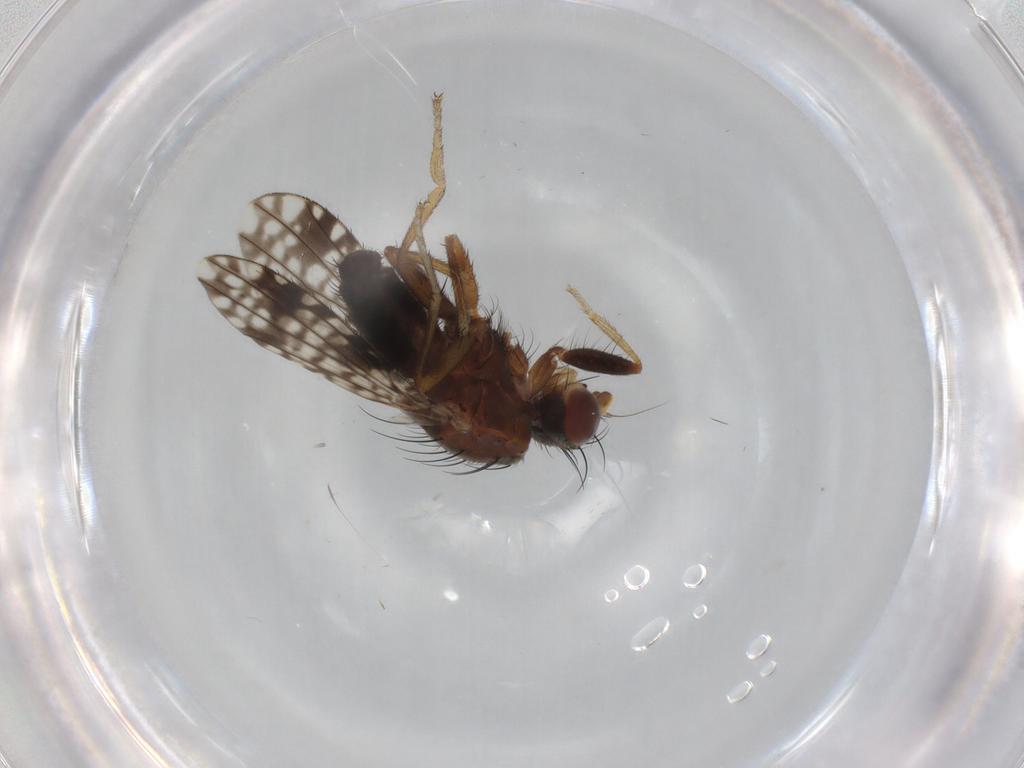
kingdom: Animalia
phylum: Arthropoda
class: Insecta
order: Diptera
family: Tephritidae
